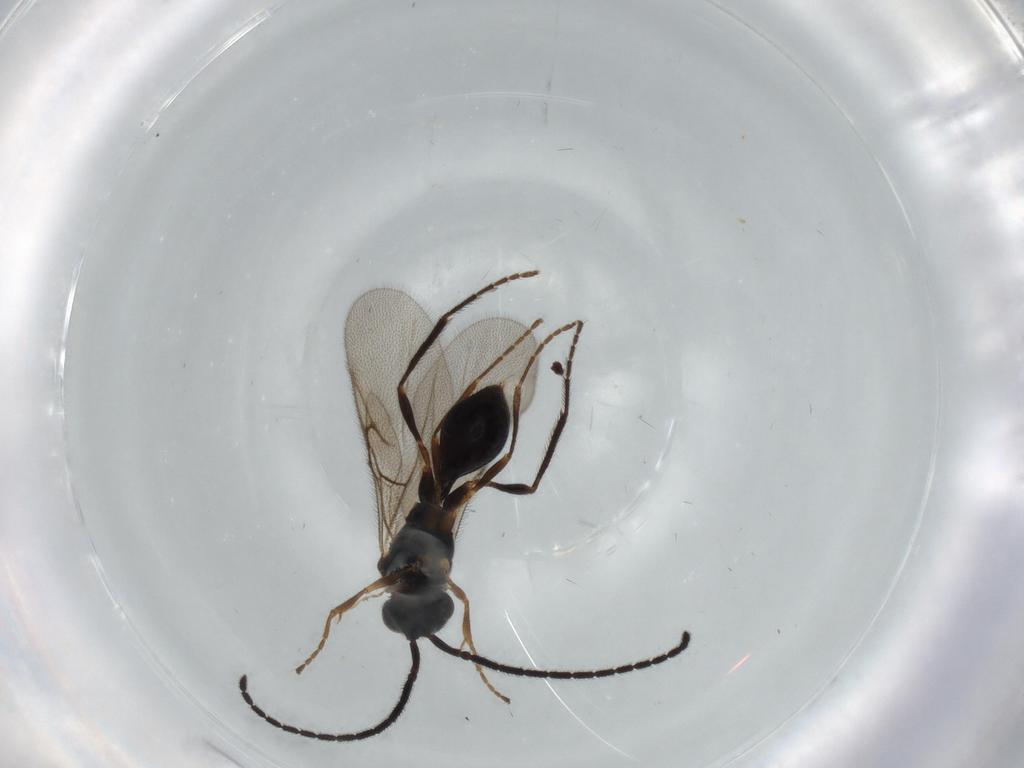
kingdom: Animalia
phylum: Arthropoda
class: Insecta
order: Hymenoptera
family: Diapriidae
